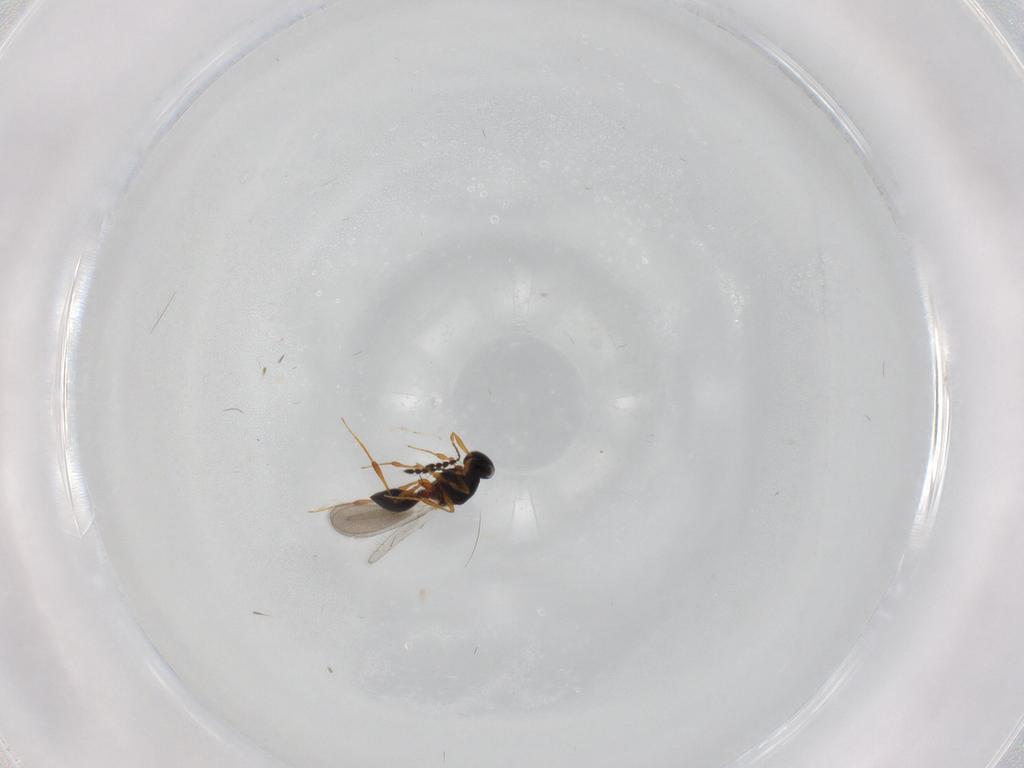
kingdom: Animalia
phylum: Arthropoda
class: Insecta
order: Hymenoptera
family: Platygastridae
